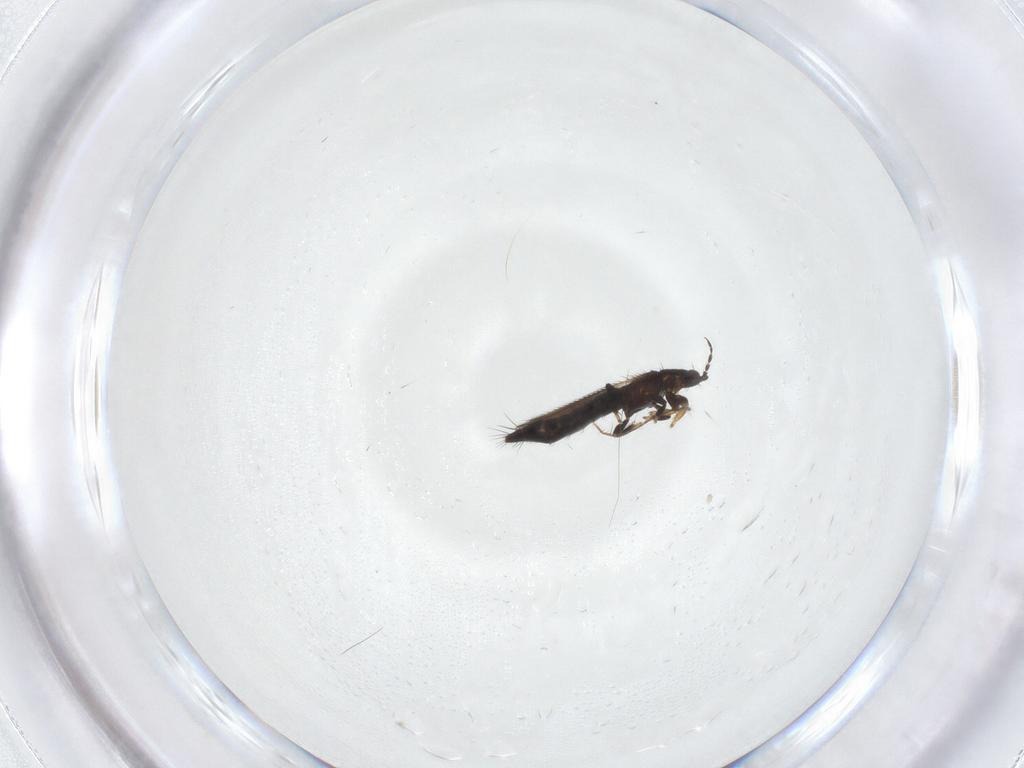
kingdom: Animalia
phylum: Arthropoda
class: Insecta
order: Thysanoptera
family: Thripidae
